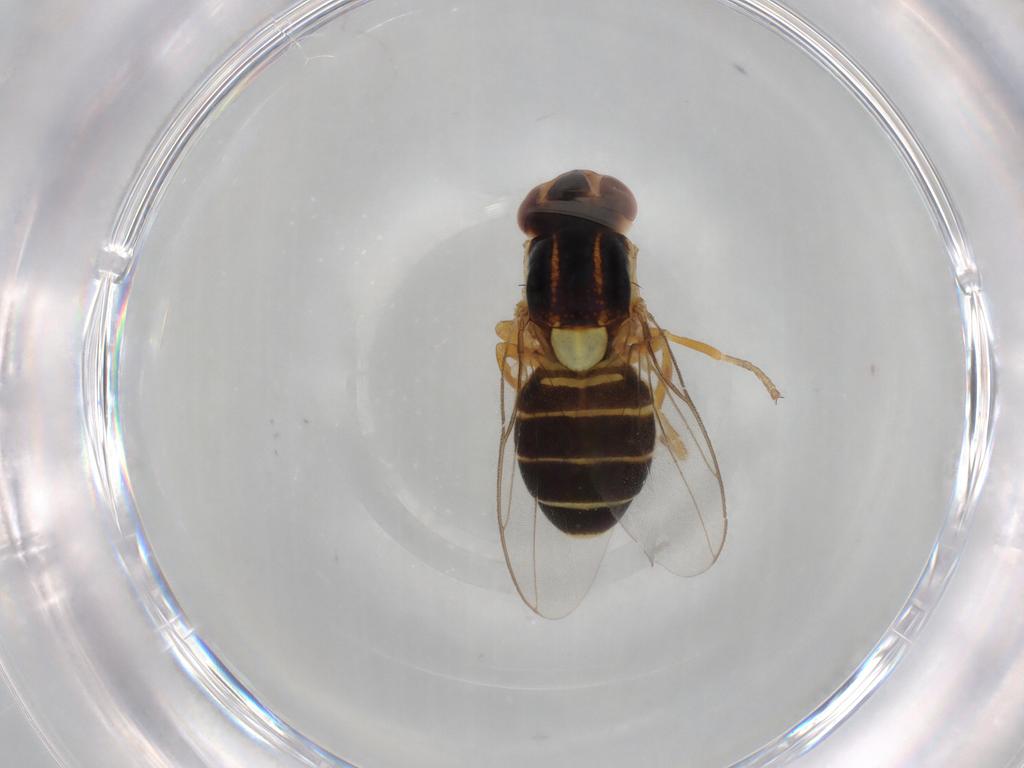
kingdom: Animalia
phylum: Arthropoda
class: Insecta
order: Diptera
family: Chloropidae
